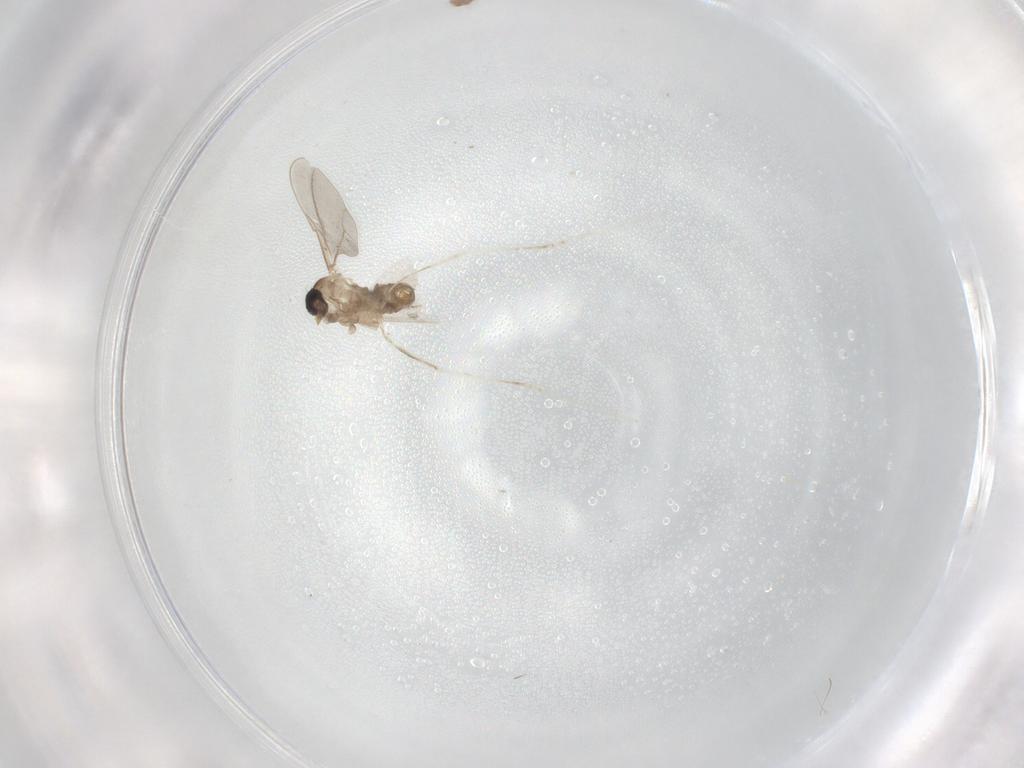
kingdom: Animalia
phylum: Arthropoda
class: Insecta
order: Diptera
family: Cecidomyiidae
